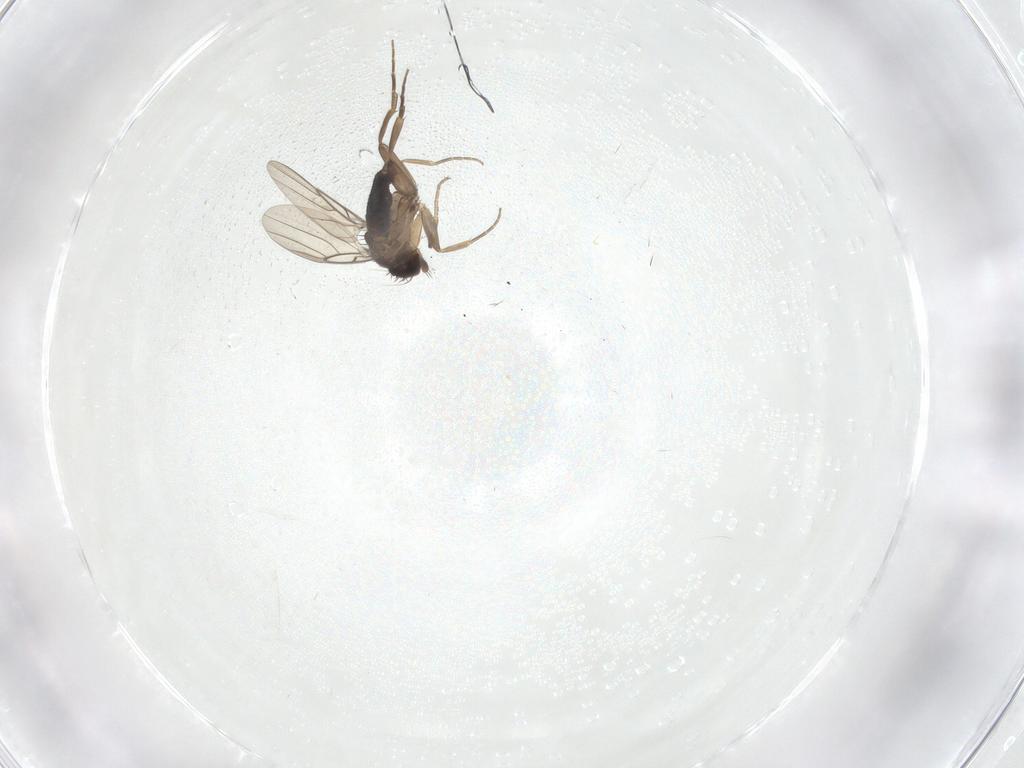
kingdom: Animalia
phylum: Arthropoda
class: Insecta
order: Diptera
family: Phoridae
